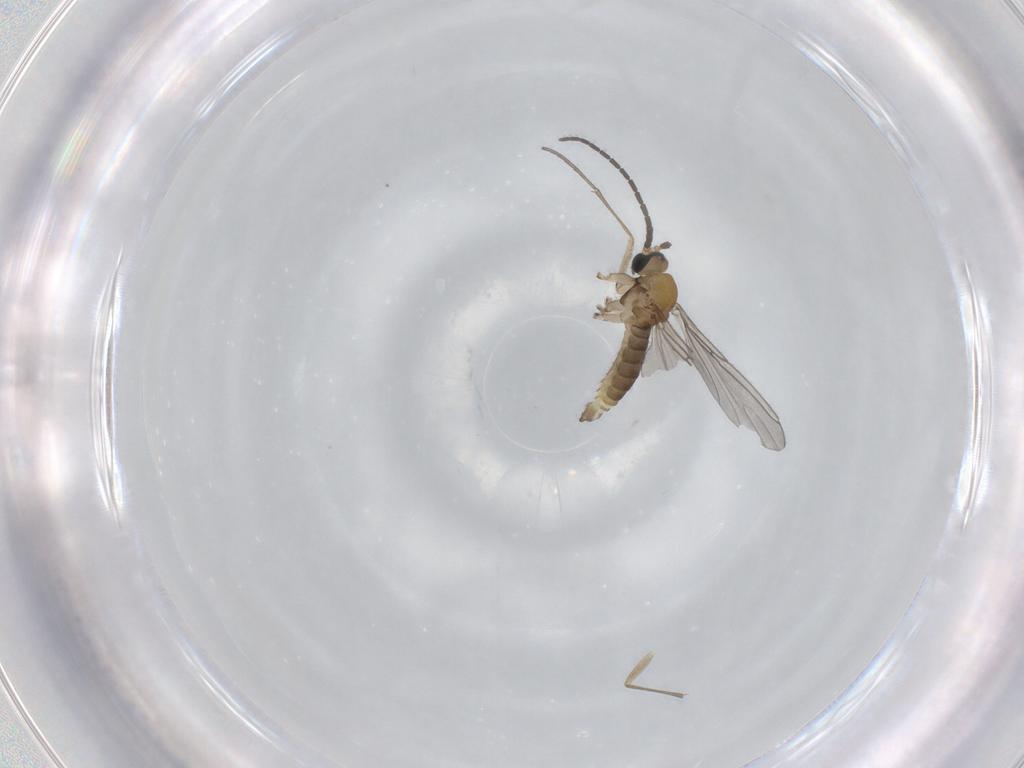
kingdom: Animalia
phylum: Arthropoda
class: Insecta
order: Diptera
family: Sciaridae
